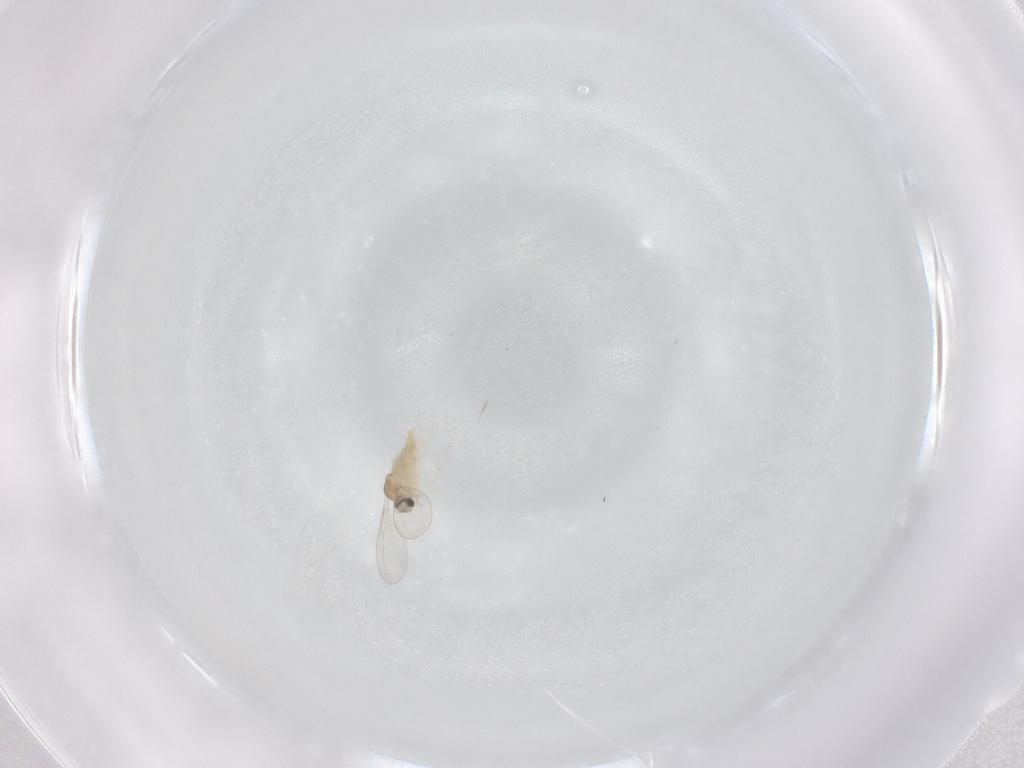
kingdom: Animalia
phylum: Arthropoda
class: Insecta
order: Diptera
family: Cecidomyiidae
